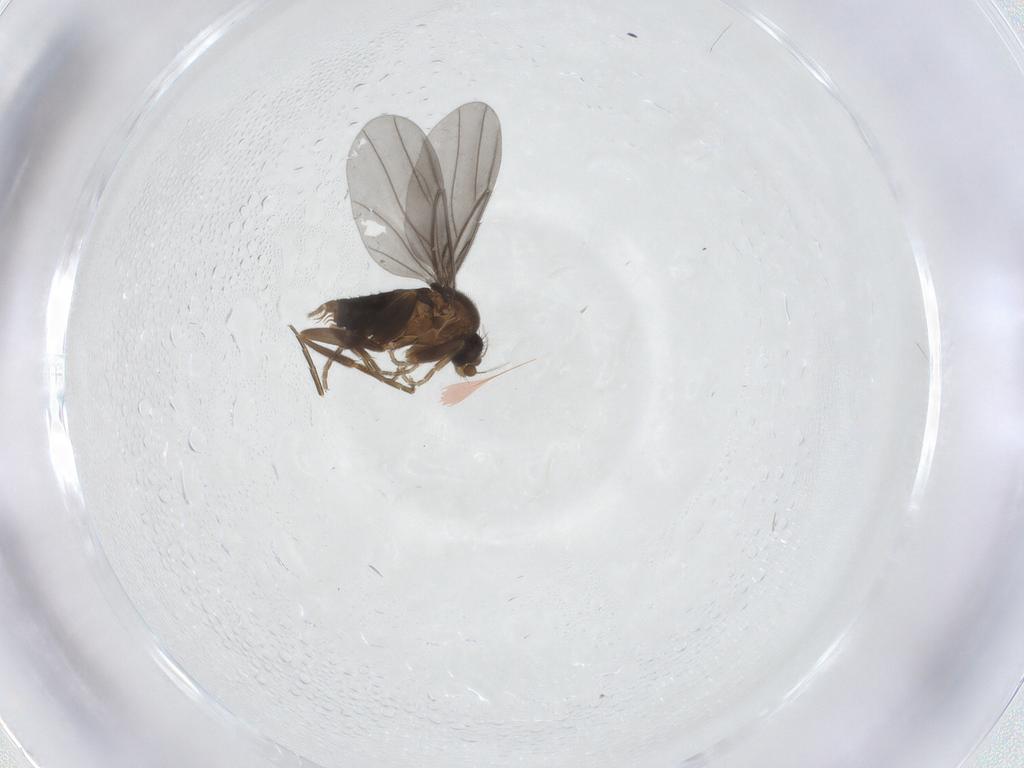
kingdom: Animalia
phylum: Arthropoda
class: Insecta
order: Diptera
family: Phoridae
